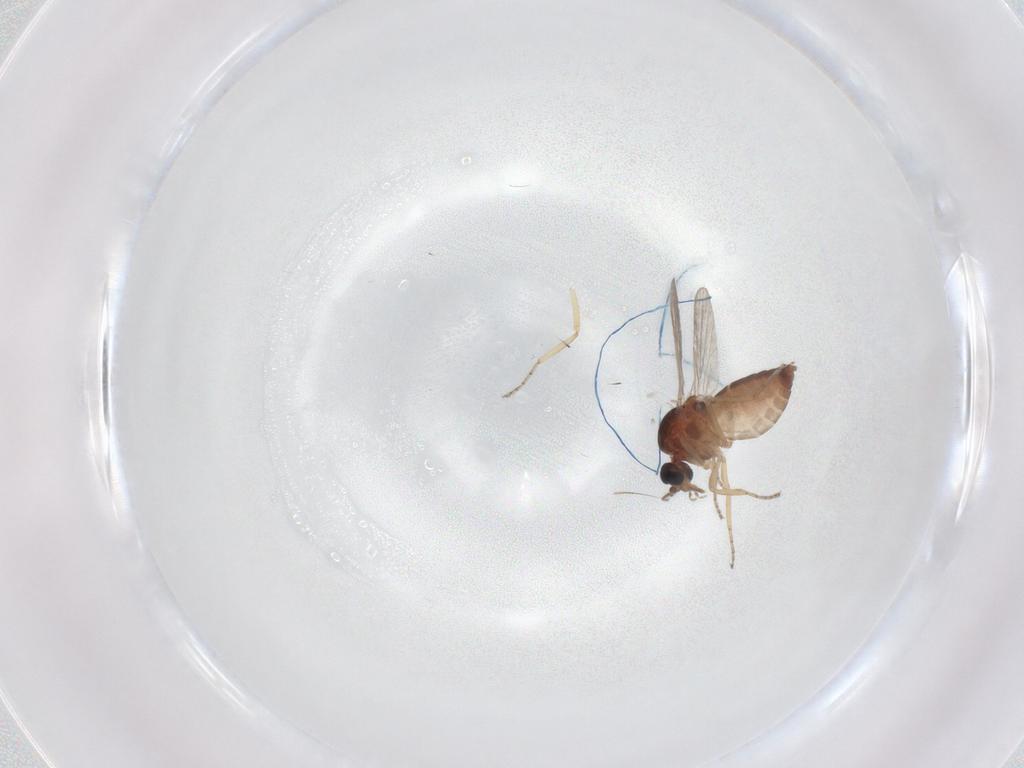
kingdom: Animalia
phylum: Arthropoda
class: Insecta
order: Diptera
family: Ceratopogonidae
